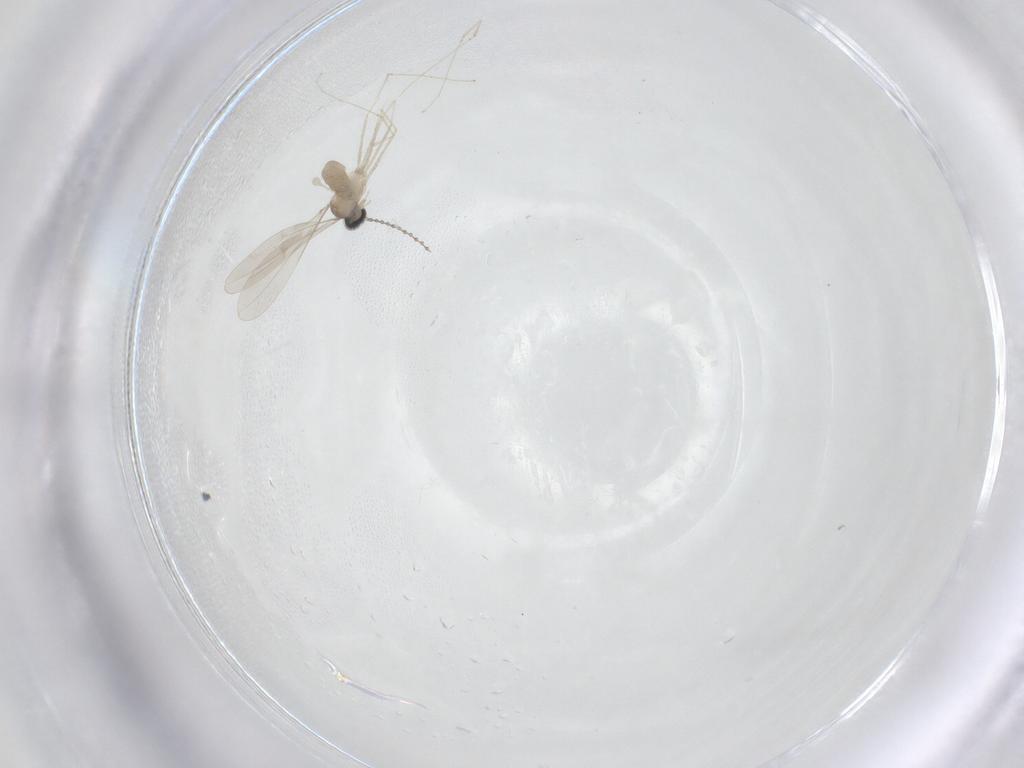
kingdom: Animalia
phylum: Arthropoda
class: Insecta
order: Diptera
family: Cecidomyiidae
